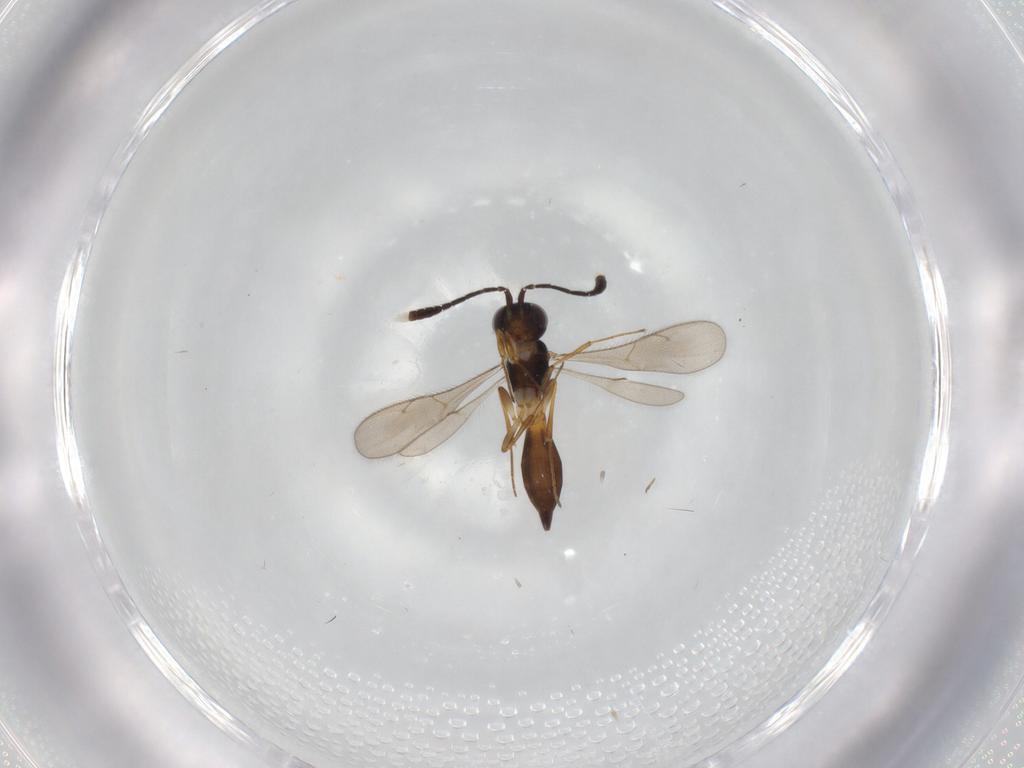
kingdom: Animalia
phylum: Arthropoda
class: Insecta
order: Hymenoptera
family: Scelionidae
